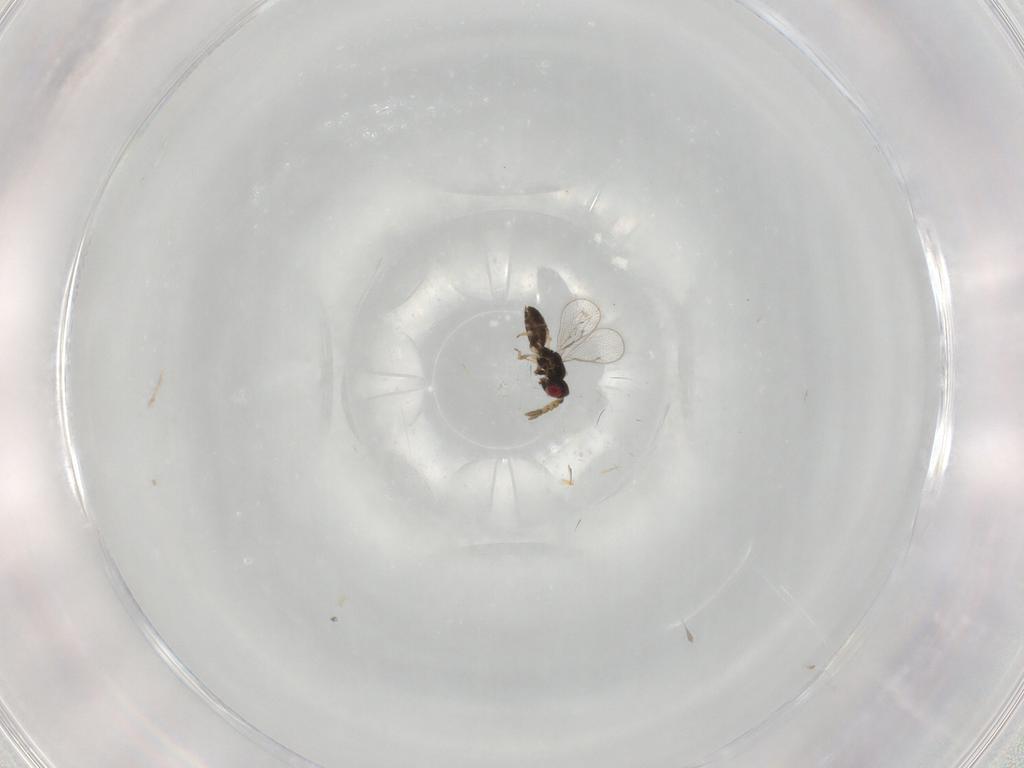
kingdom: Animalia
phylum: Arthropoda
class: Insecta
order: Hymenoptera
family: Eulophidae
